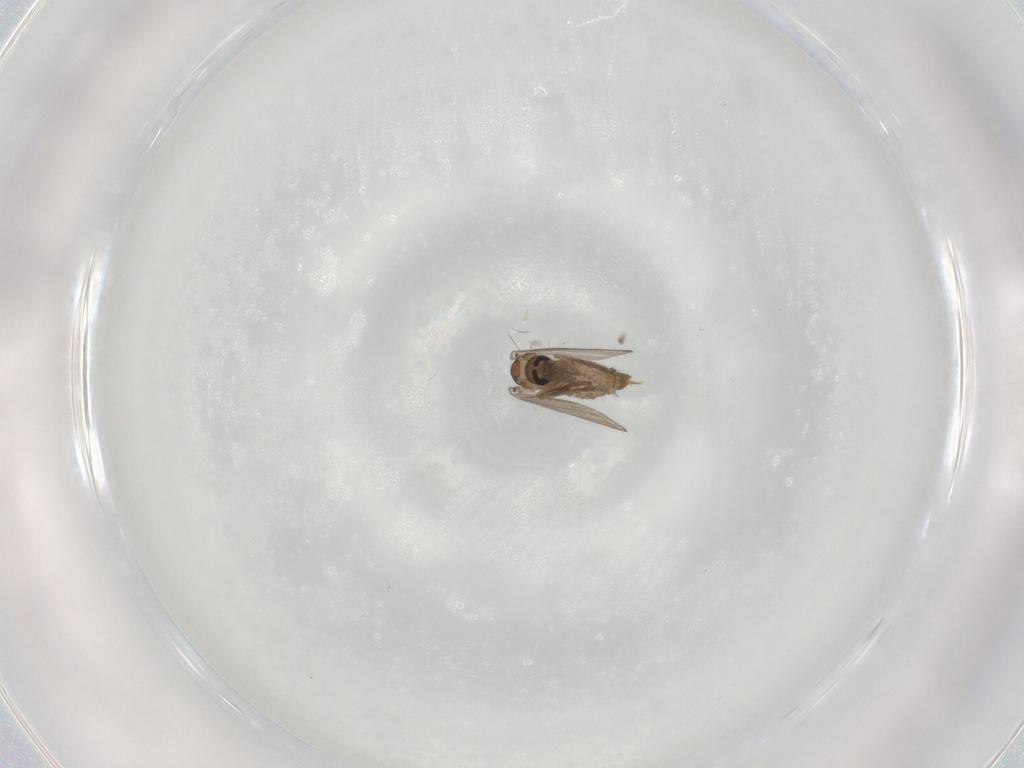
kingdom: Animalia
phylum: Arthropoda
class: Insecta
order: Diptera
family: Psychodidae
